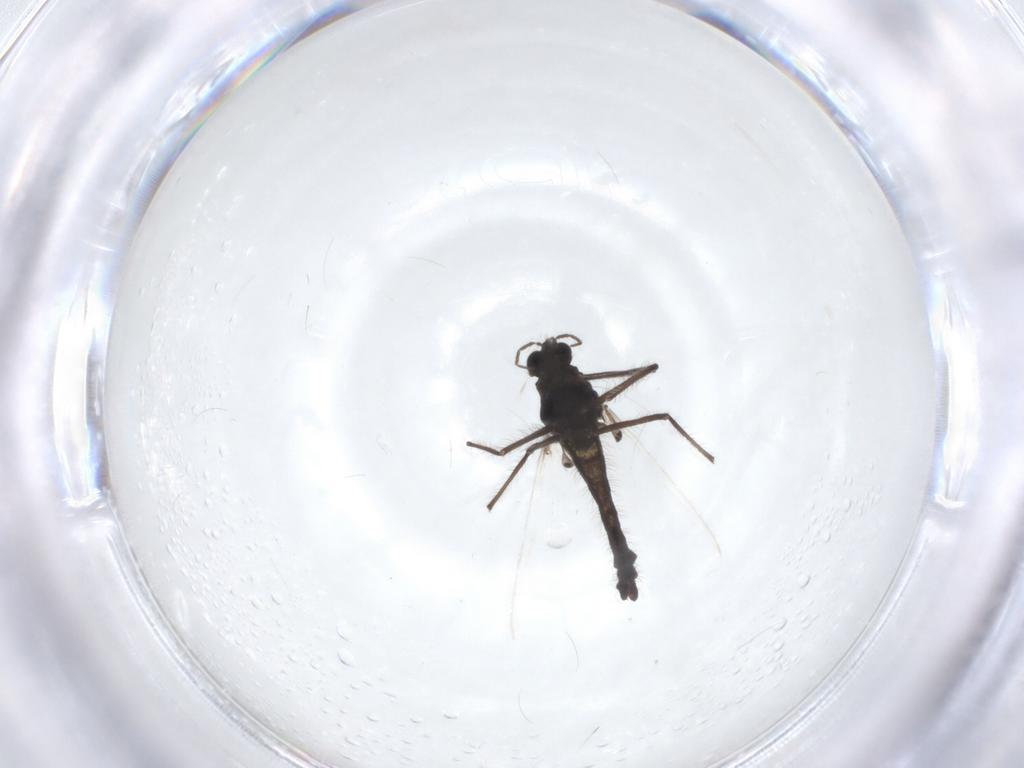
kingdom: Animalia
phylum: Arthropoda
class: Insecta
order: Diptera
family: Chironomidae
